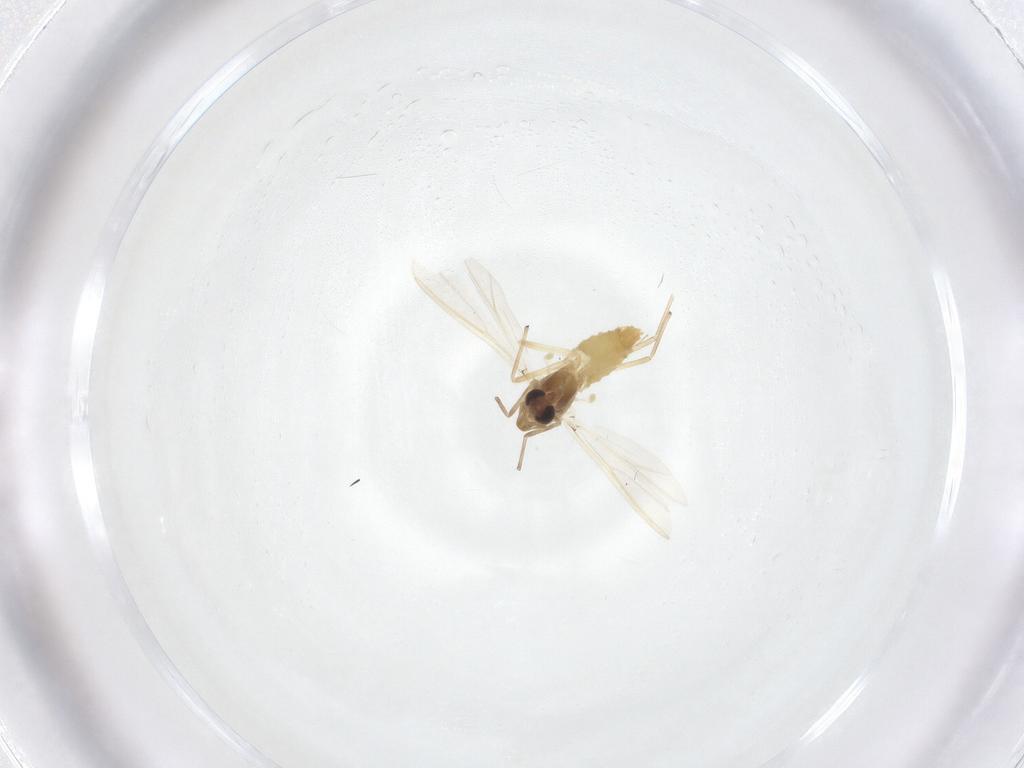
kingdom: Animalia
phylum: Arthropoda
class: Insecta
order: Diptera
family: Chironomidae
